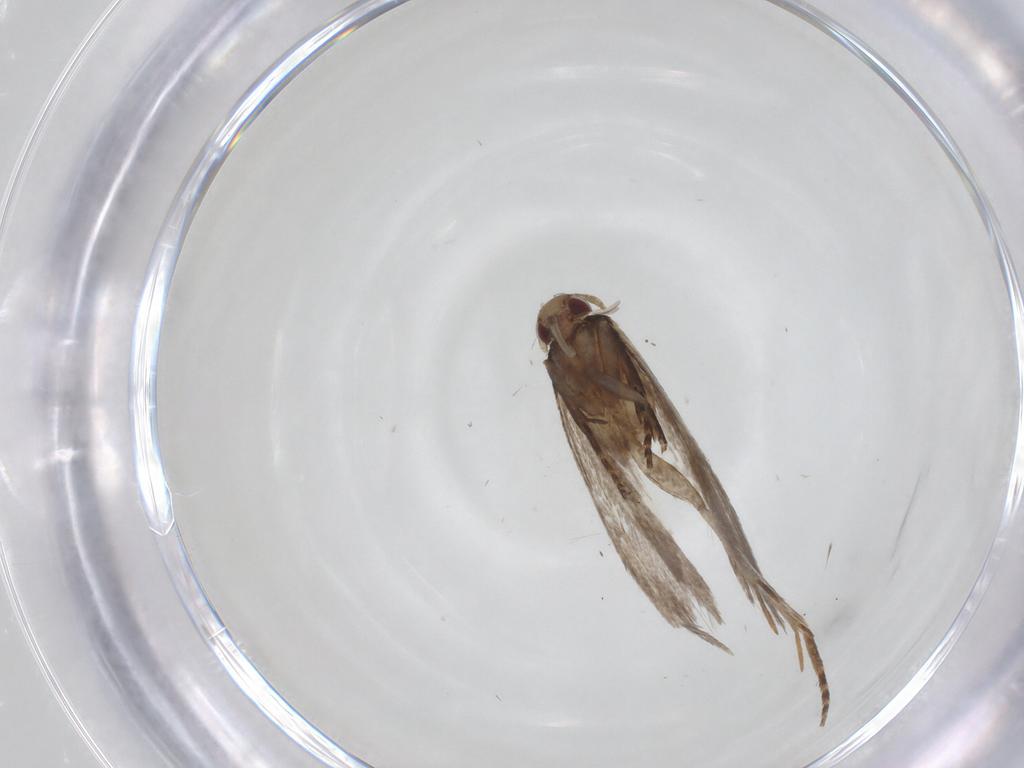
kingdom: Animalia
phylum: Arthropoda
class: Insecta
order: Lepidoptera
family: Gelechiidae
